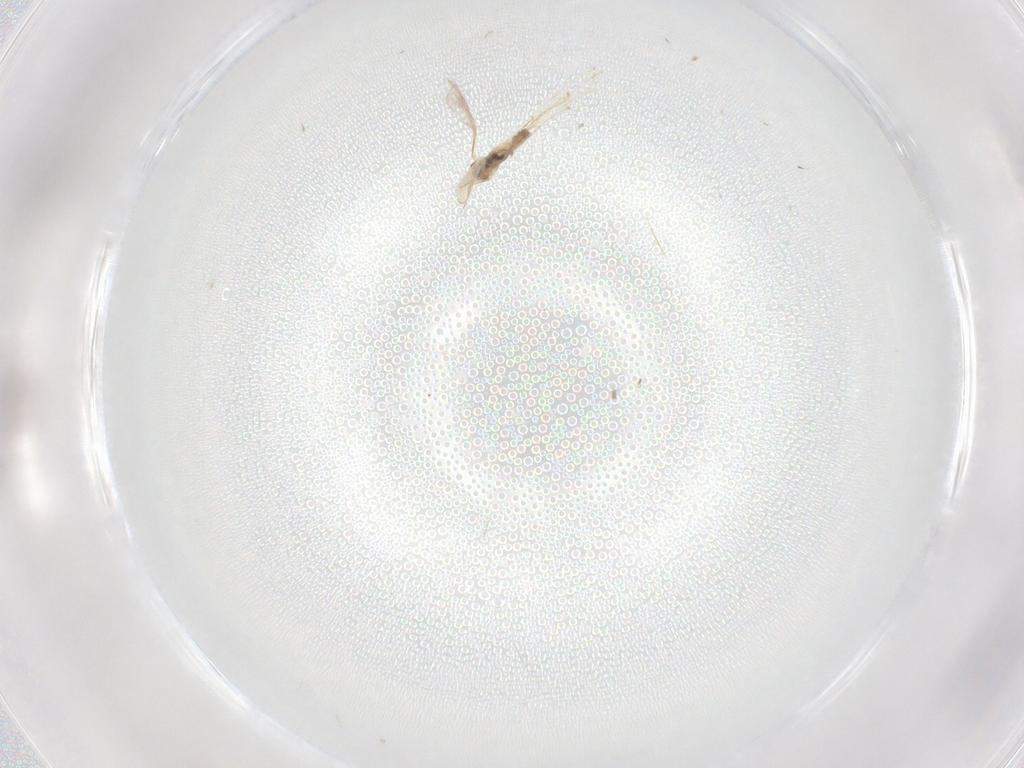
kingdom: Animalia
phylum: Arthropoda
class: Insecta
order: Diptera
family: Cecidomyiidae
